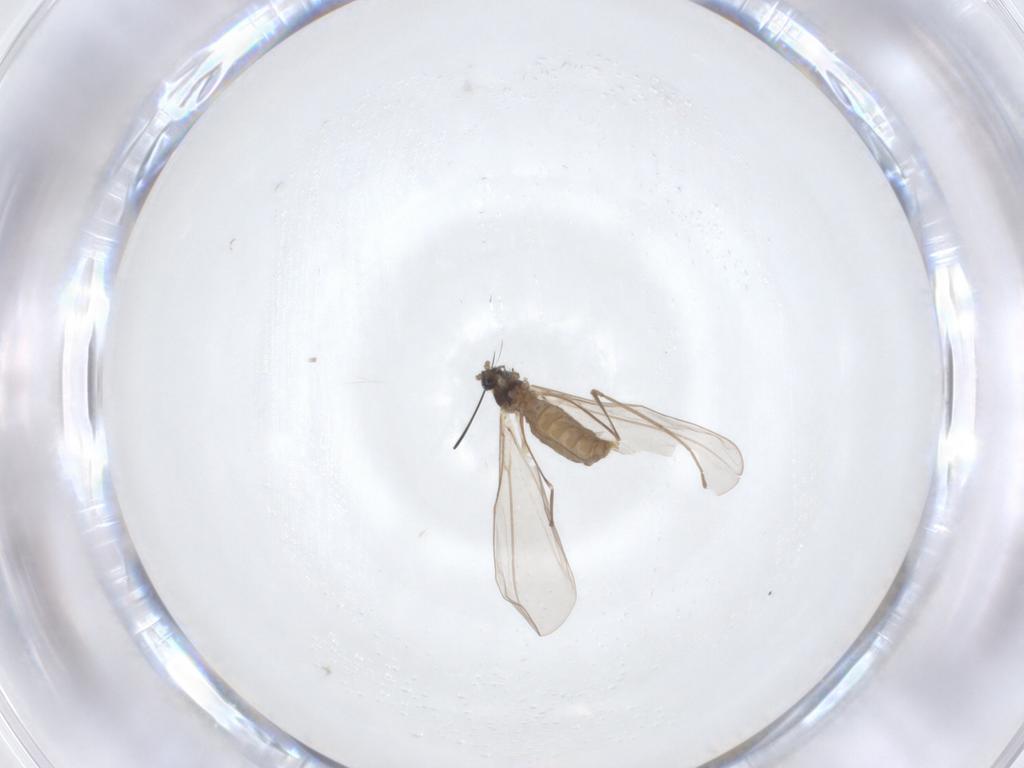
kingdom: Animalia
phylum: Arthropoda
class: Insecta
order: Diptera
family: Cecidomyiidae
